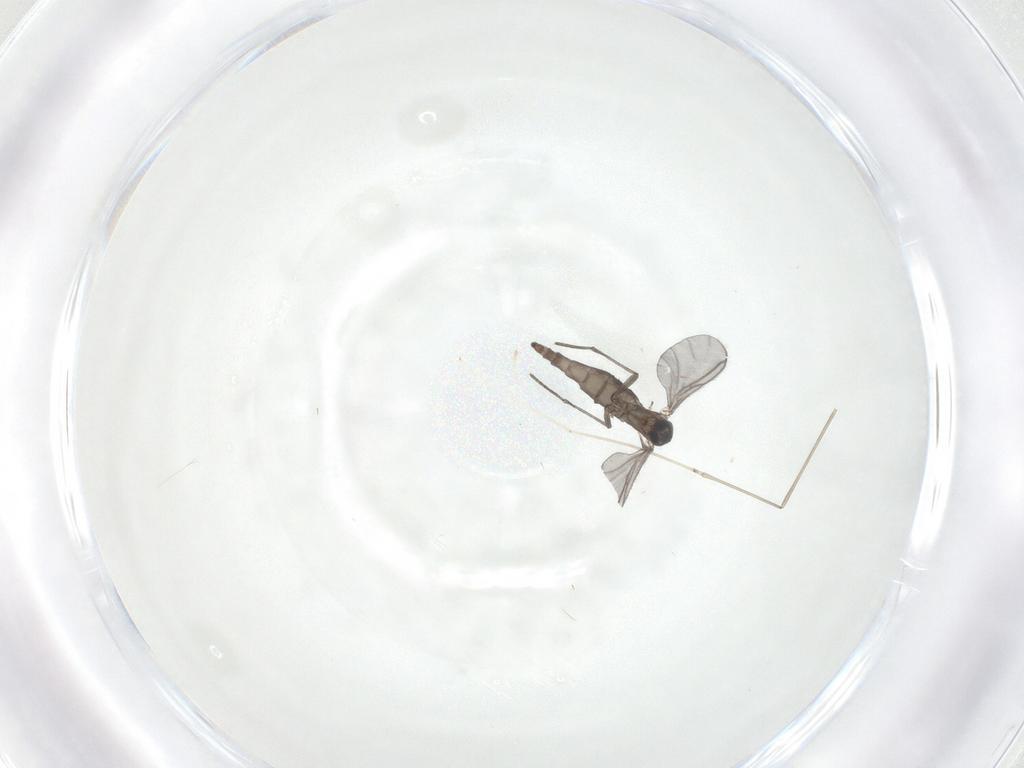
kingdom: Animalia
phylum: Arthropoda
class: Insecta
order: Diptera
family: Cecidomyiidae
